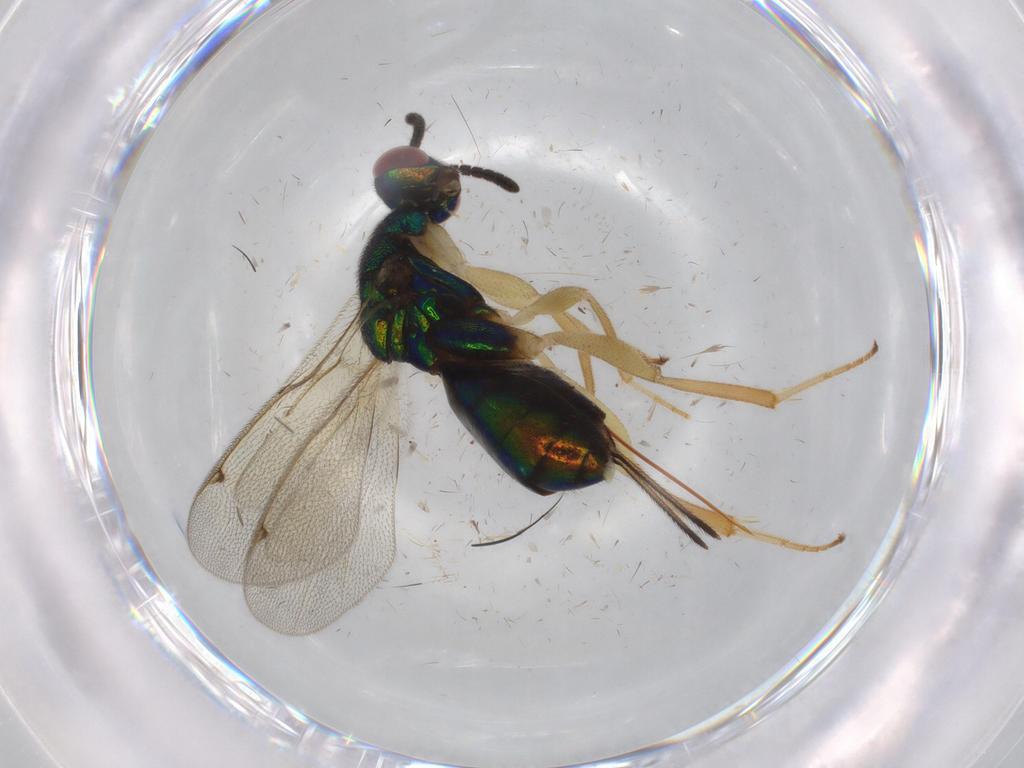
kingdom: Animalia
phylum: Arthropoda
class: Insecta
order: Hymenoptera
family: Torymidae
